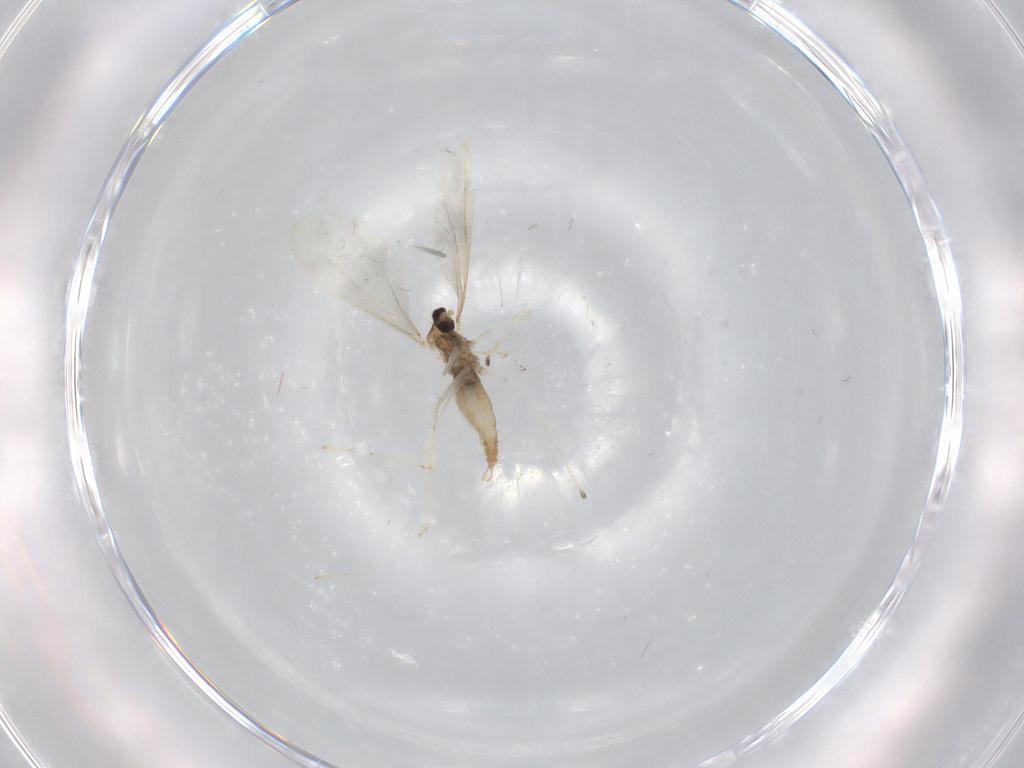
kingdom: Animalia
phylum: Arthropoda
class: Insecta
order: Diptera
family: Cecidomyiidae
